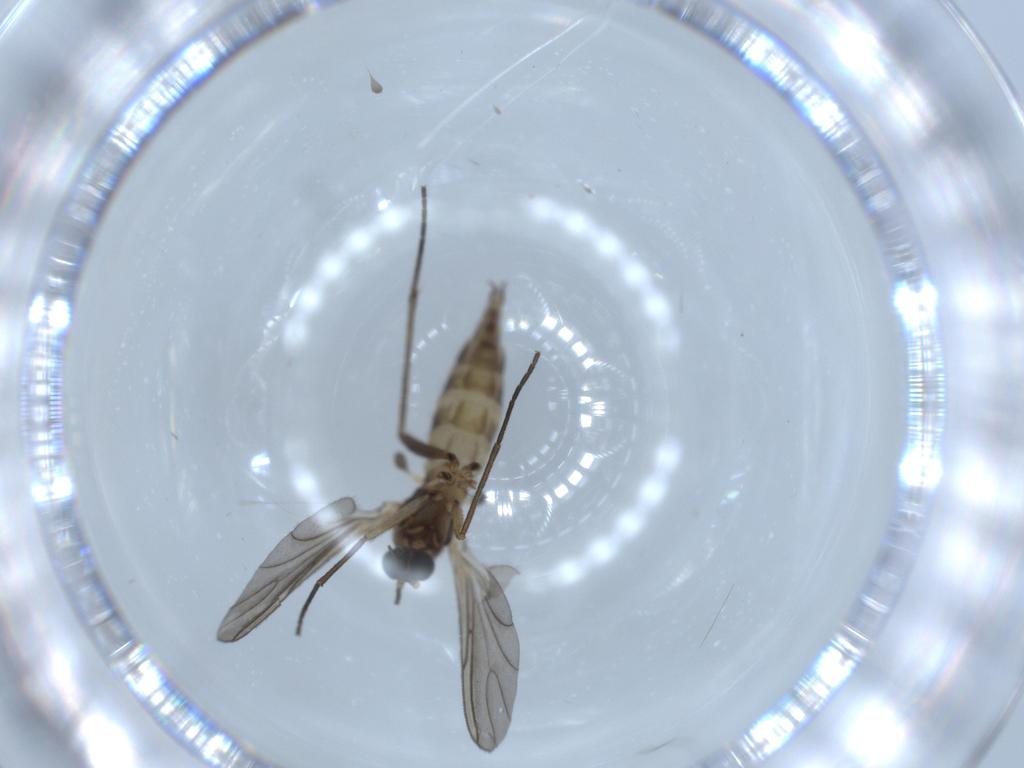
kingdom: Animalia
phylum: Arthropoda
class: Insecta
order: Diptera
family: Sciaridae
